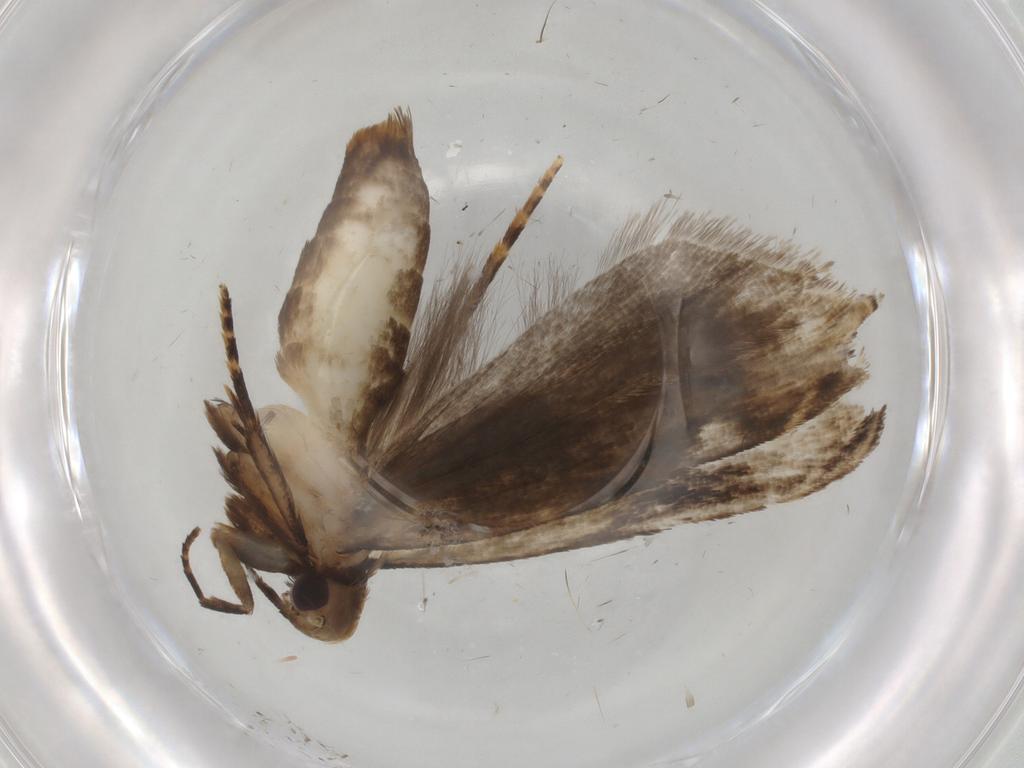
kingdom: Animalia
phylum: Arthropoda
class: Insecta
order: Lepidoptera
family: Gelechiidae
